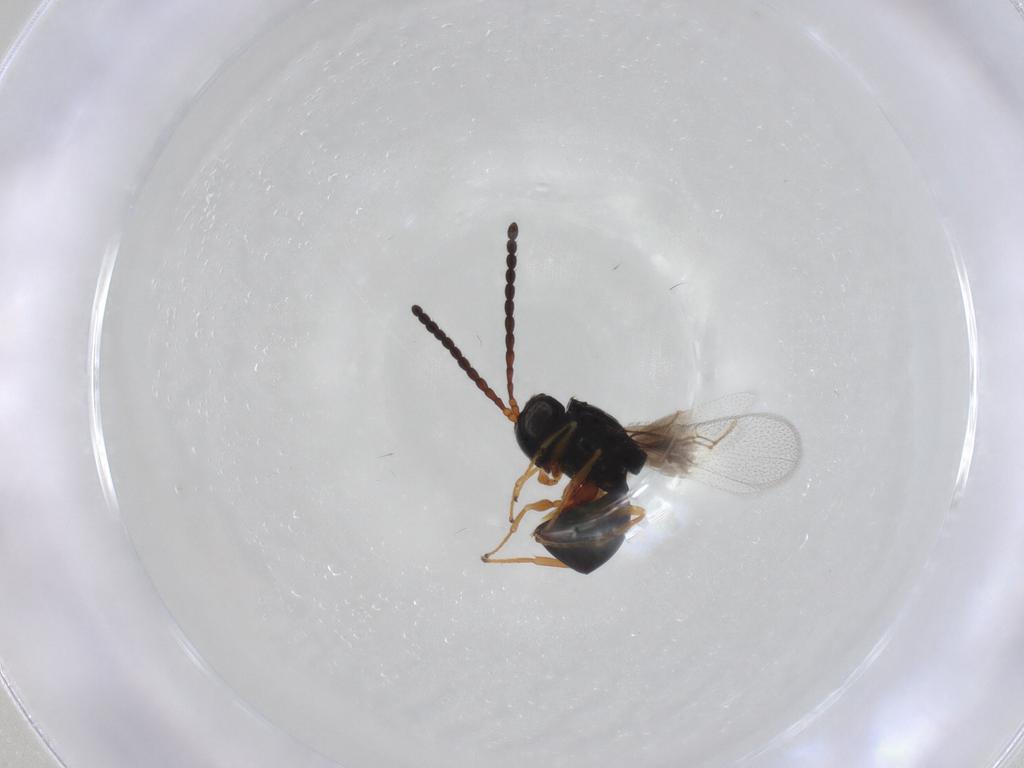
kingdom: Animalia
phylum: Arthropoda
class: Insecta
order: Hymenoptera
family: Figitidae
